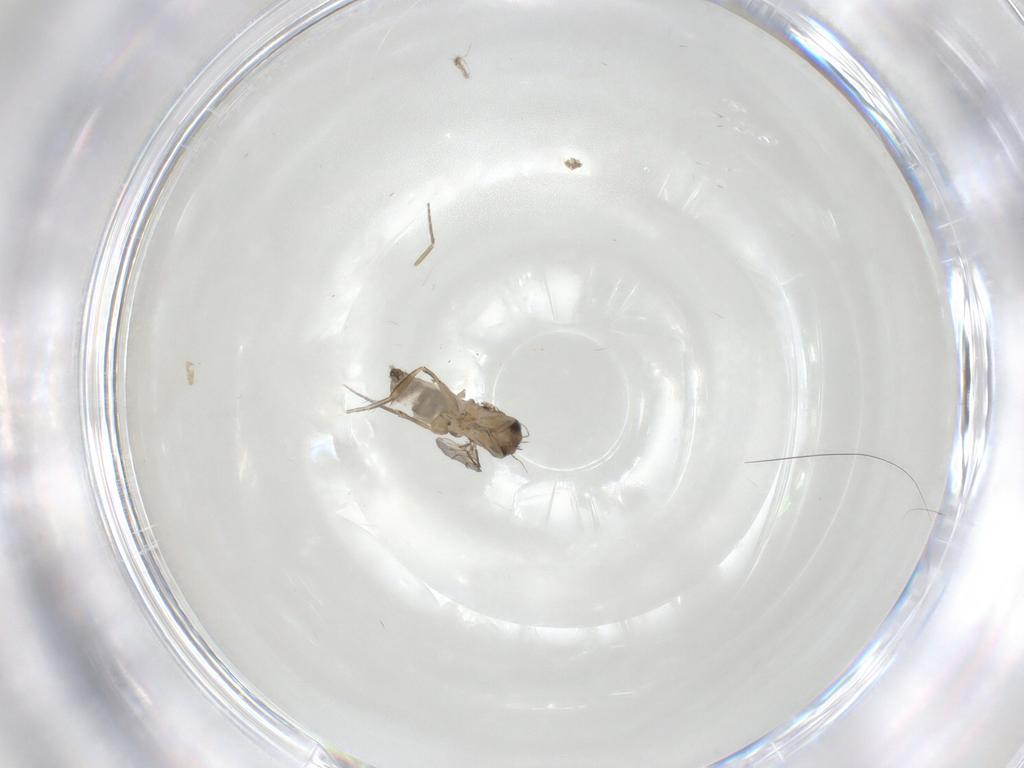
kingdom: Animalia
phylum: Arthropoda
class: Insecta
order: Diptera
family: Phoridae
